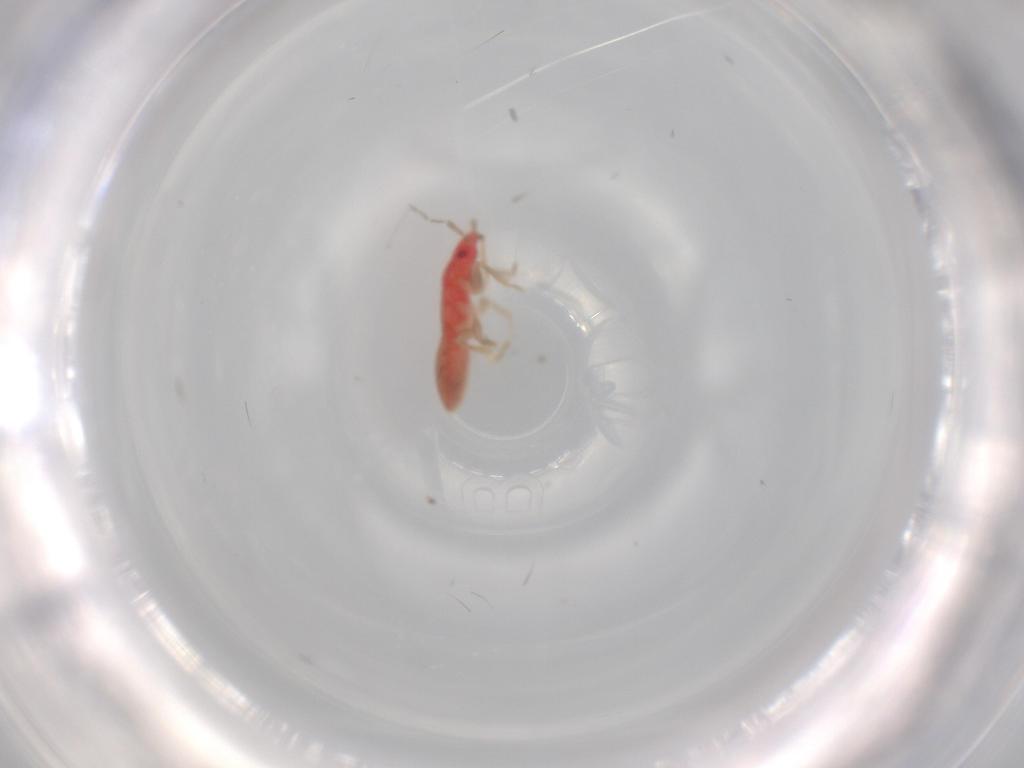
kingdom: Animalia
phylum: Arthropoda
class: Insecta
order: Hemiptera
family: Anthocoridae
